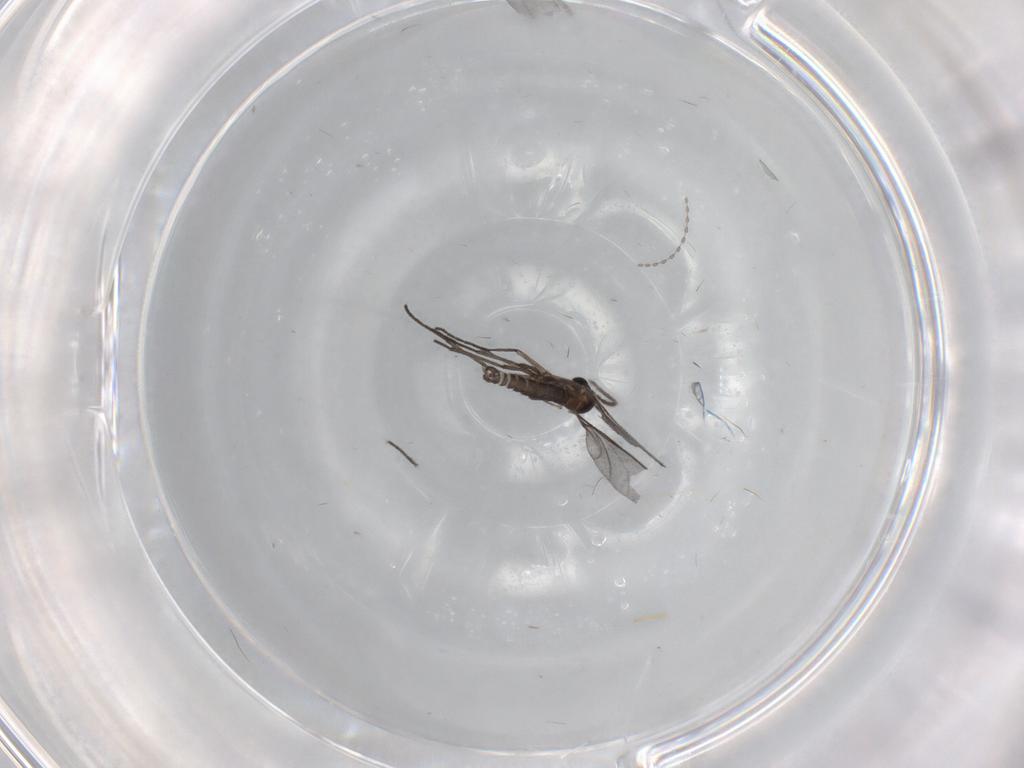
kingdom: Animalia
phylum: Arthropoda
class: Insecta
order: Diptera
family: Sciaridae
